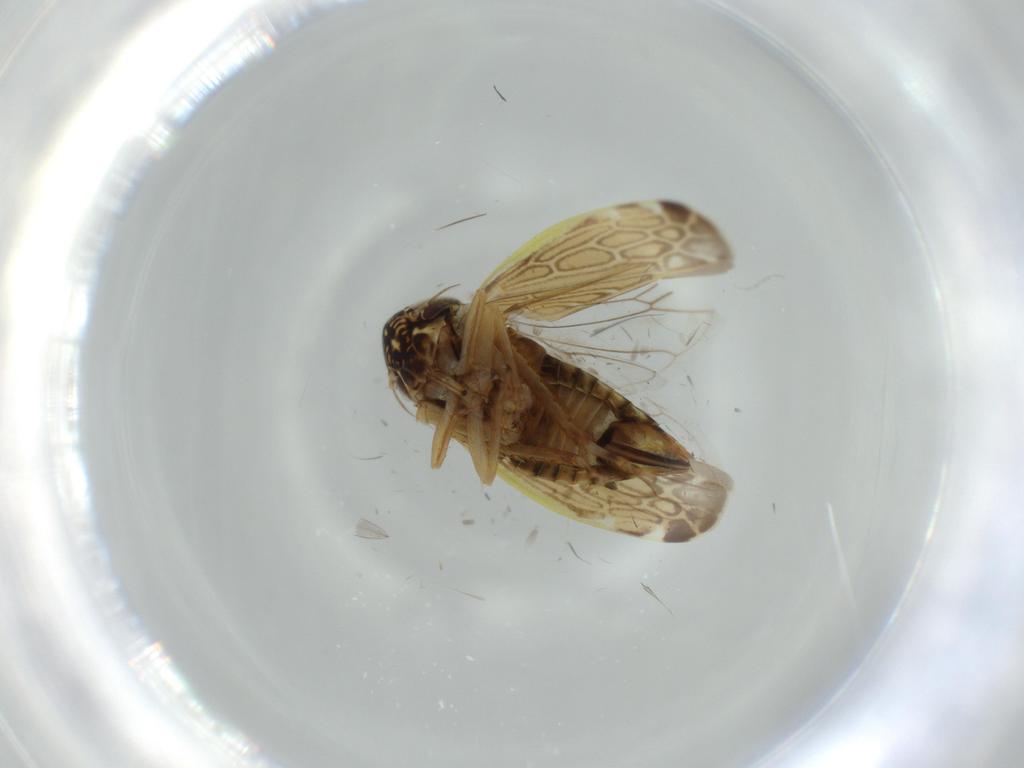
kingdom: Animalia
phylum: Arthropoda
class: Insecta
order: Hemiptera
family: Cicadellidae
